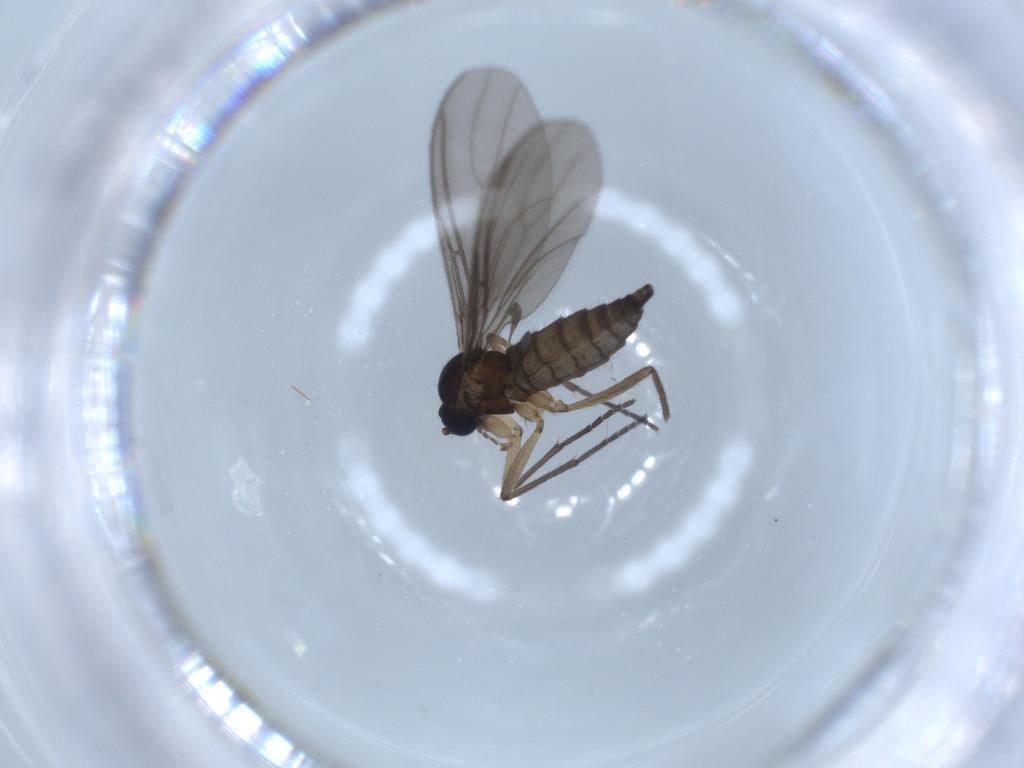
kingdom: Animalia
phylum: Arthropoda
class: Insecta
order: Diptera
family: Sciaridae
